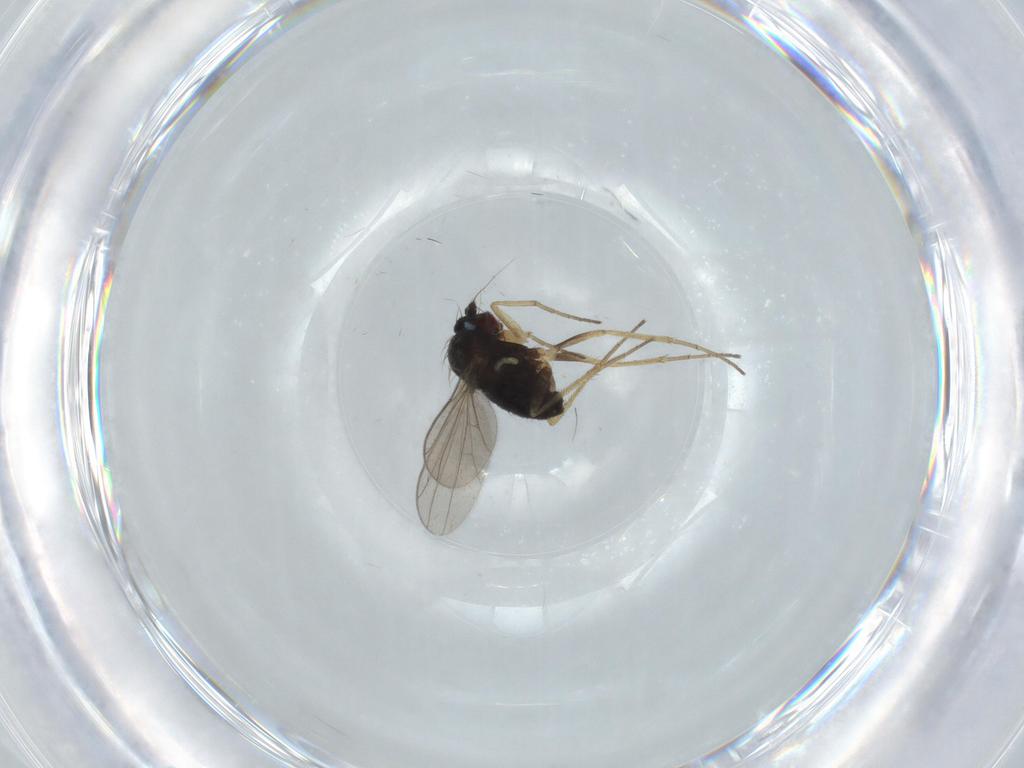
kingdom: Animalia
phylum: Arthropoda
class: Insecta
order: Diptera
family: Dolichopodidae
